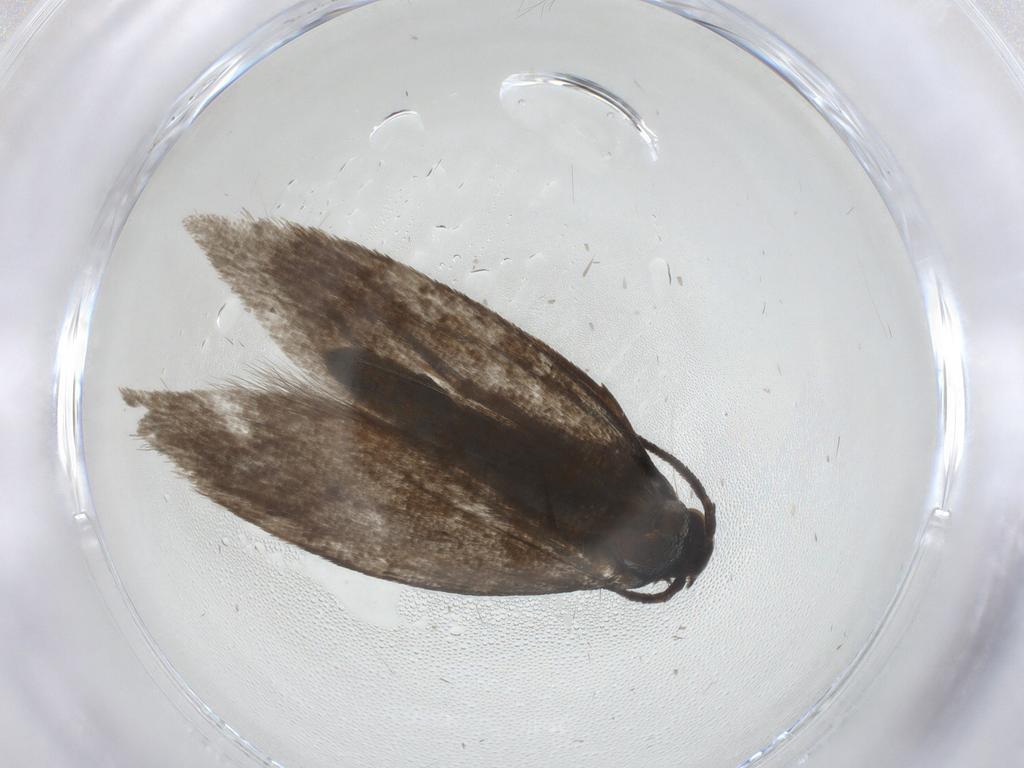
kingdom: Animalia
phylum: Arthropoda
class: Insecta
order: Lepidoptera
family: Argyresthiidae
